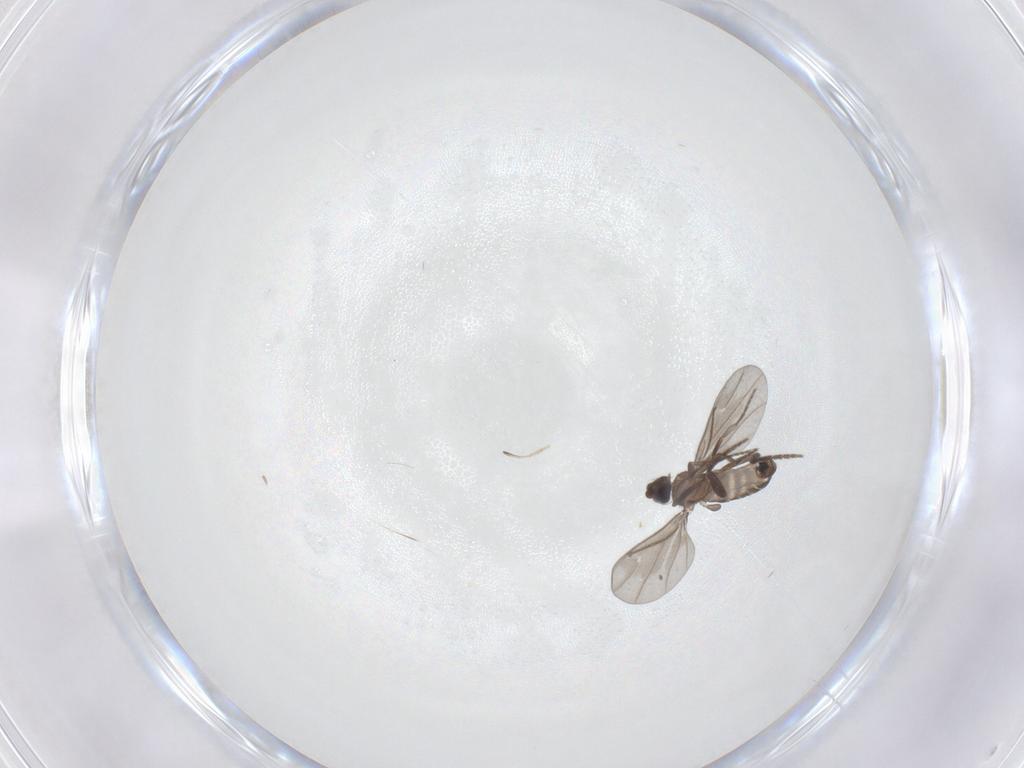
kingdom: Animalia
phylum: Arthropoda
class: Insecta
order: Diptera
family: Chironomidae
